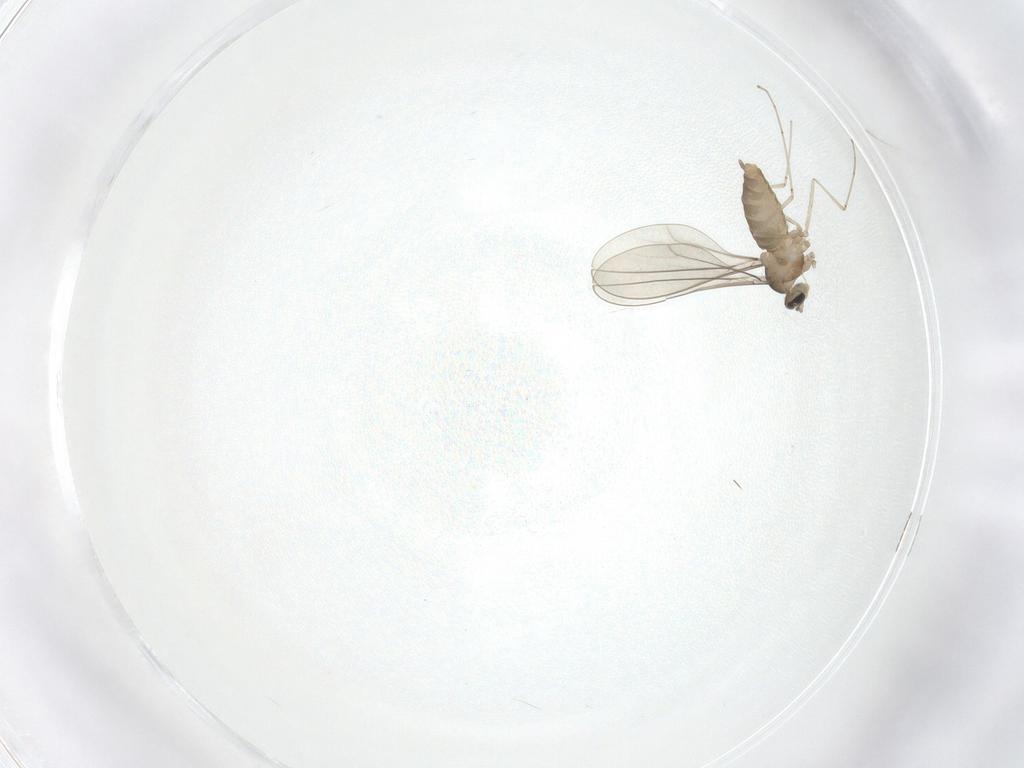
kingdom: Animalia
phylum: Arthropoda
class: Insecta
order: Diptera
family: Cecidomyiidae
